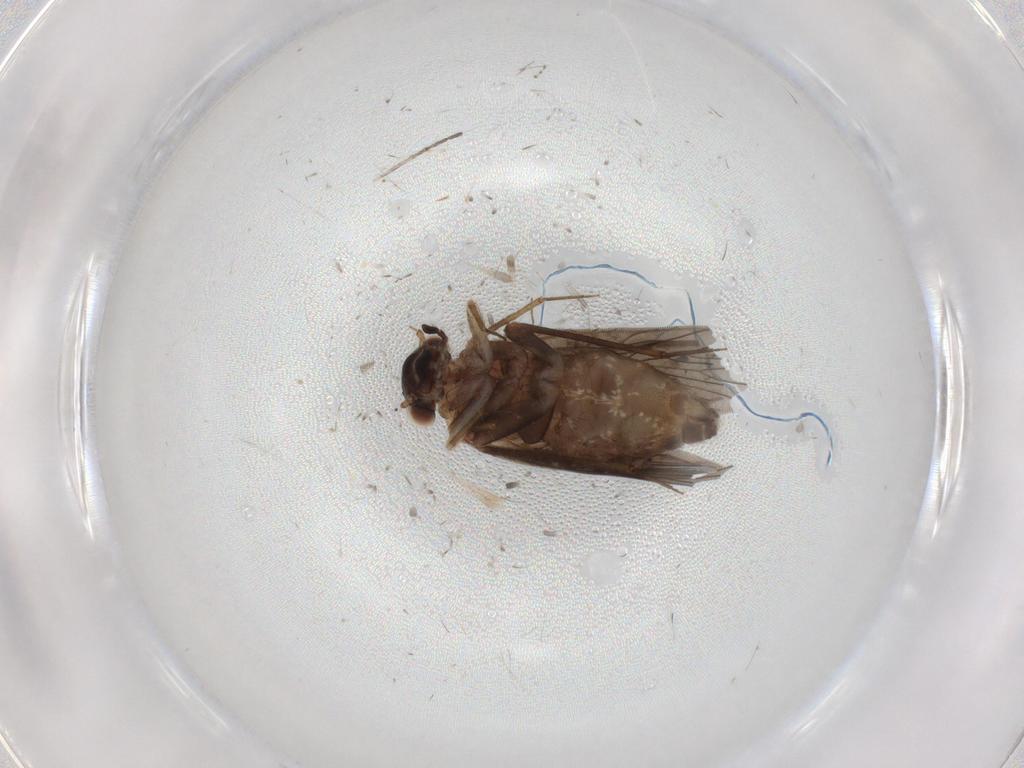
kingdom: Animalia
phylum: Arthropoda
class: Insecta
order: Psocodea
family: Lepidopsocidae
